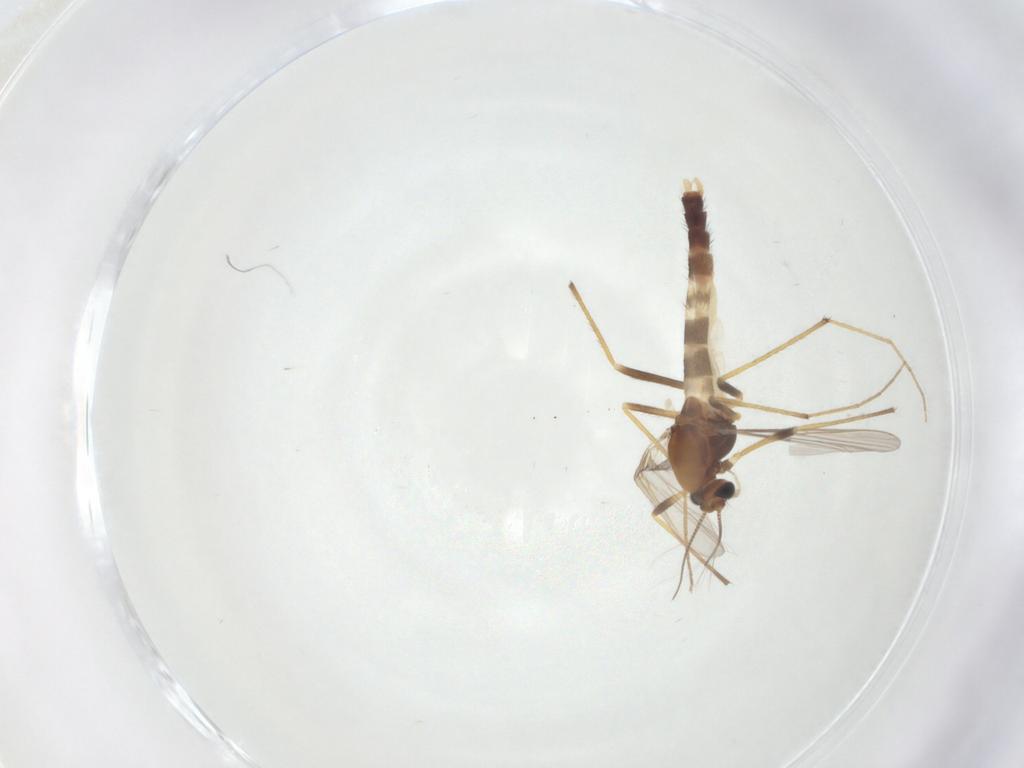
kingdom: Animalia
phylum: Arthropoda
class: Insecta
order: Diptera
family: Chironomidae
